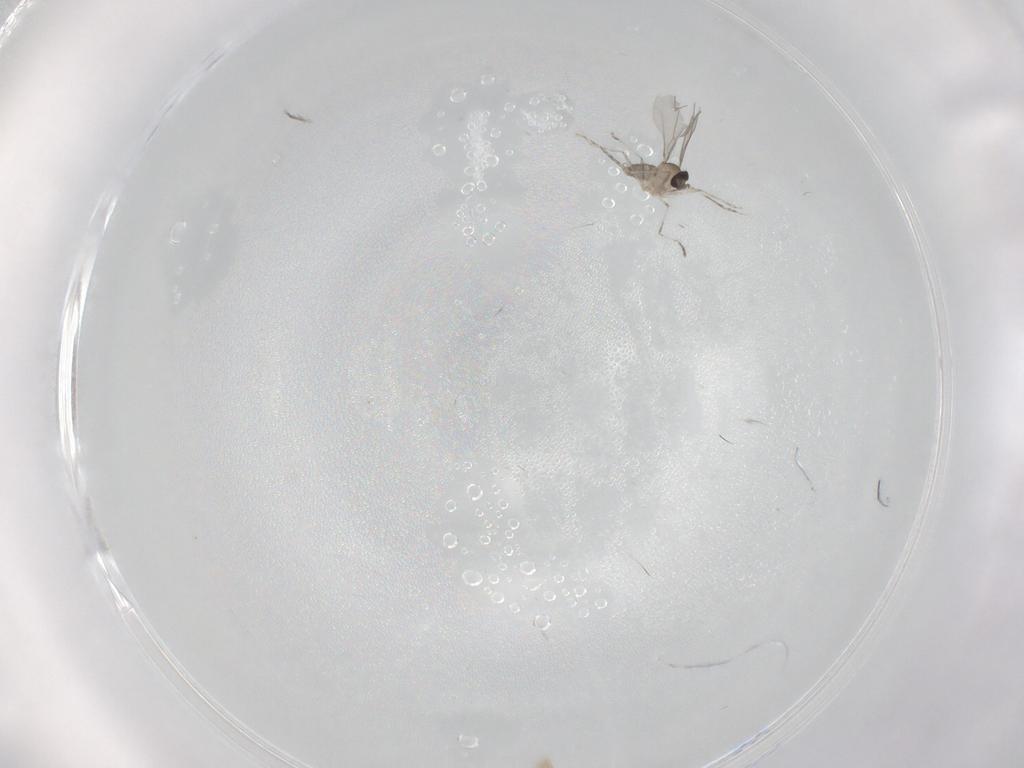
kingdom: Animalia
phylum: Arthropoda
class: Insecta
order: Diptera
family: Cecidomyiidae
